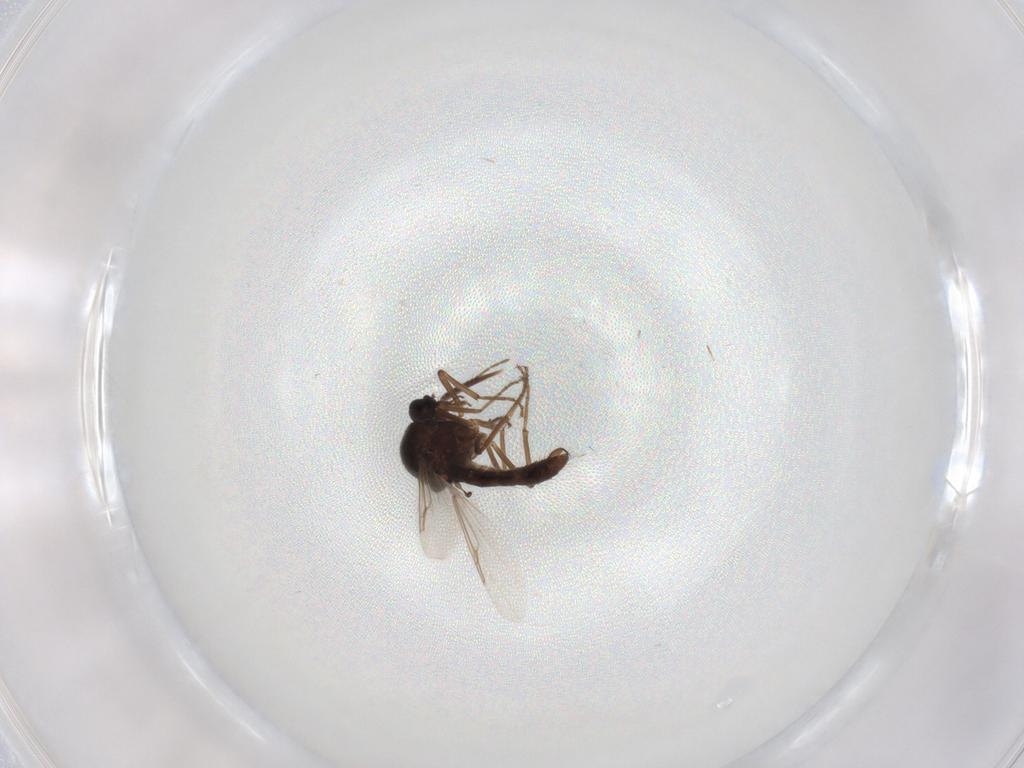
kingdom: Animalia
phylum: Arthropoda
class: Insecta
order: Diptera
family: Ceratopogonidae
